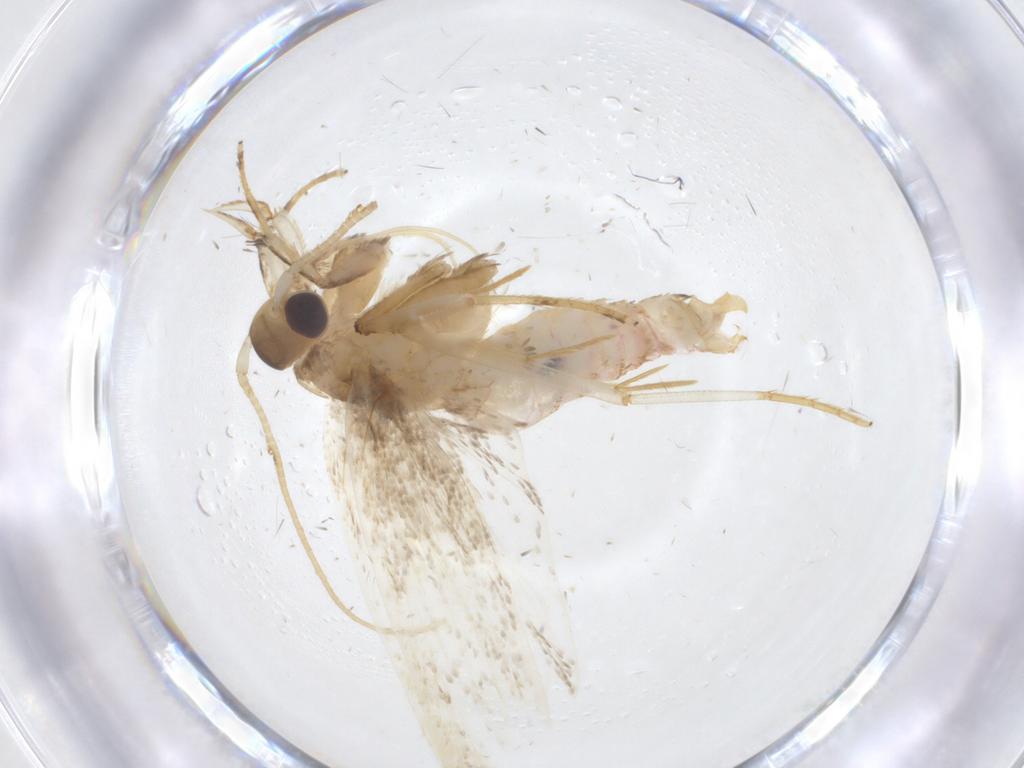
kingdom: Animalia
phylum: Arthropoda
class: Insecta
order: Lepidoptera
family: Lecithoceridae
